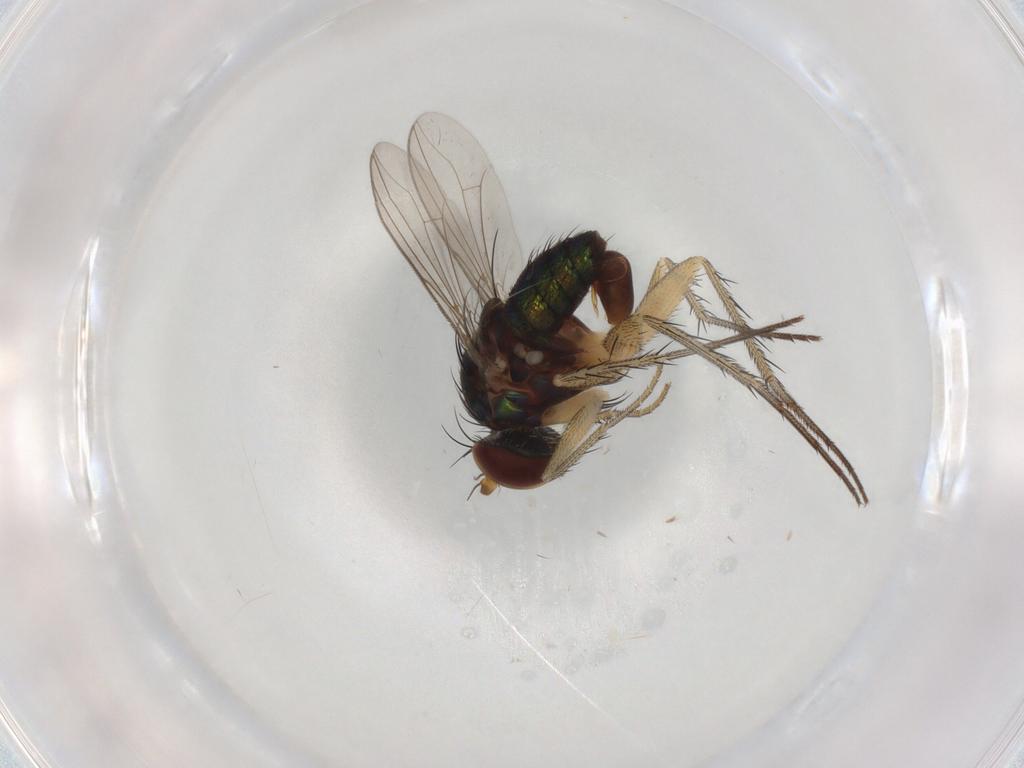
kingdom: Animalia
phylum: Arthropoda
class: Insecta
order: Diptera
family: Dolichopodidae
